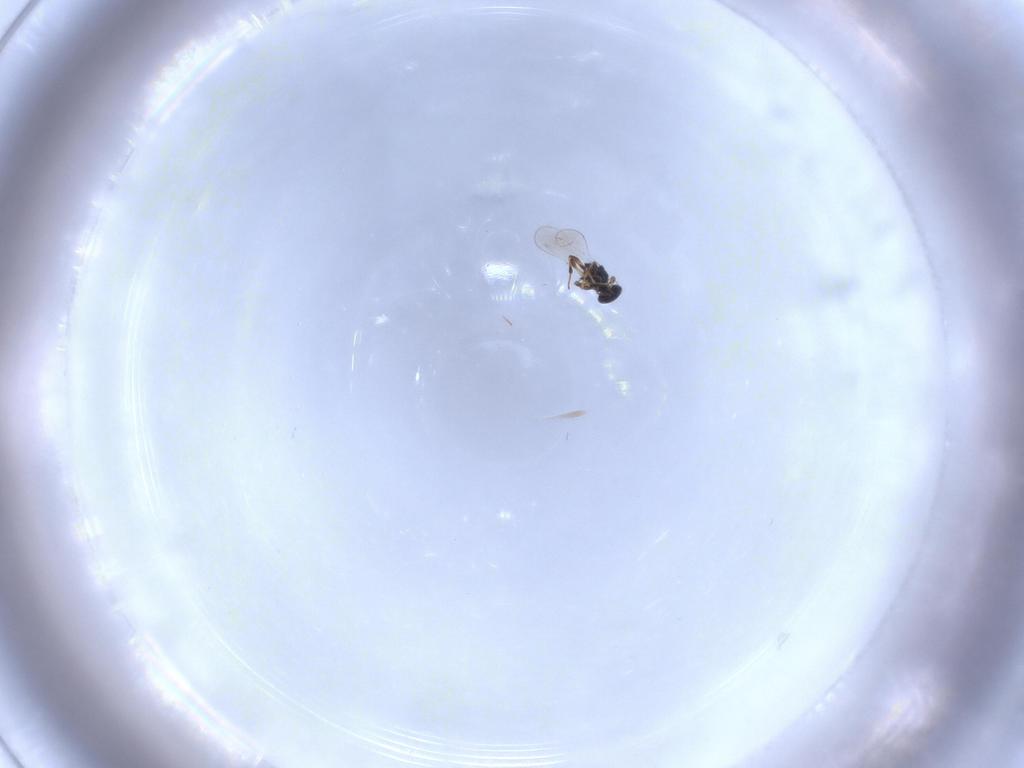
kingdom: Animalia
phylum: Arthropoda
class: Insecta
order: Hymenoptera
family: Platygastridae
